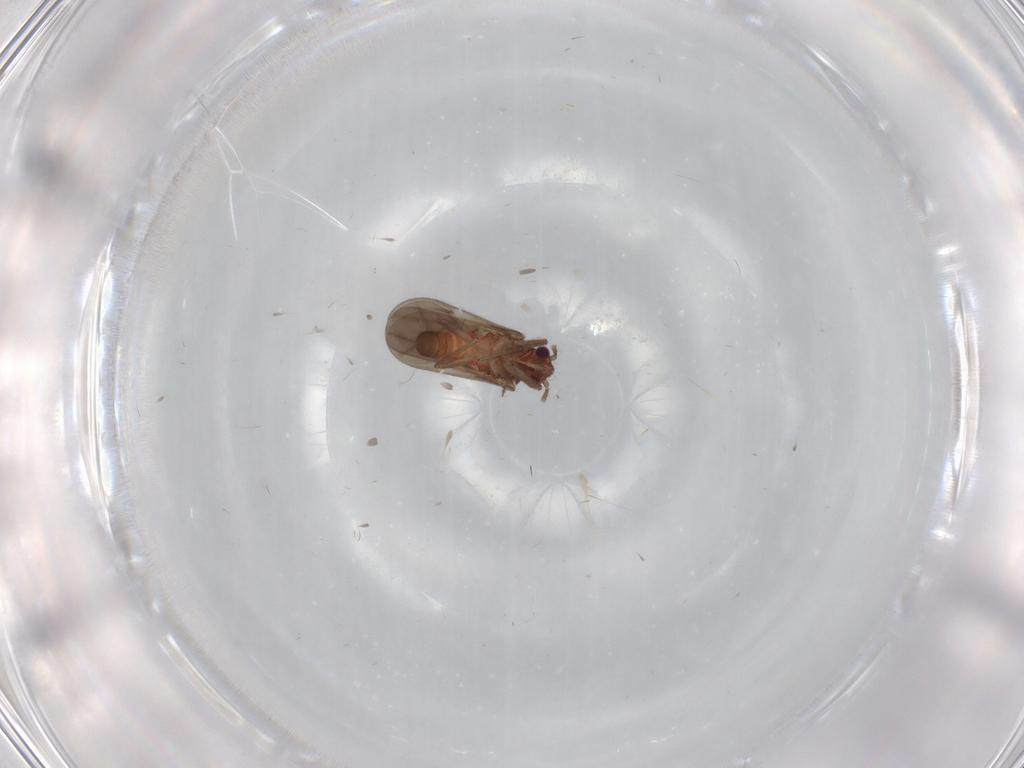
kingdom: Animalia
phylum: Arthropoda
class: Insecta
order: Hemiptera
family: Ceratocombidae
